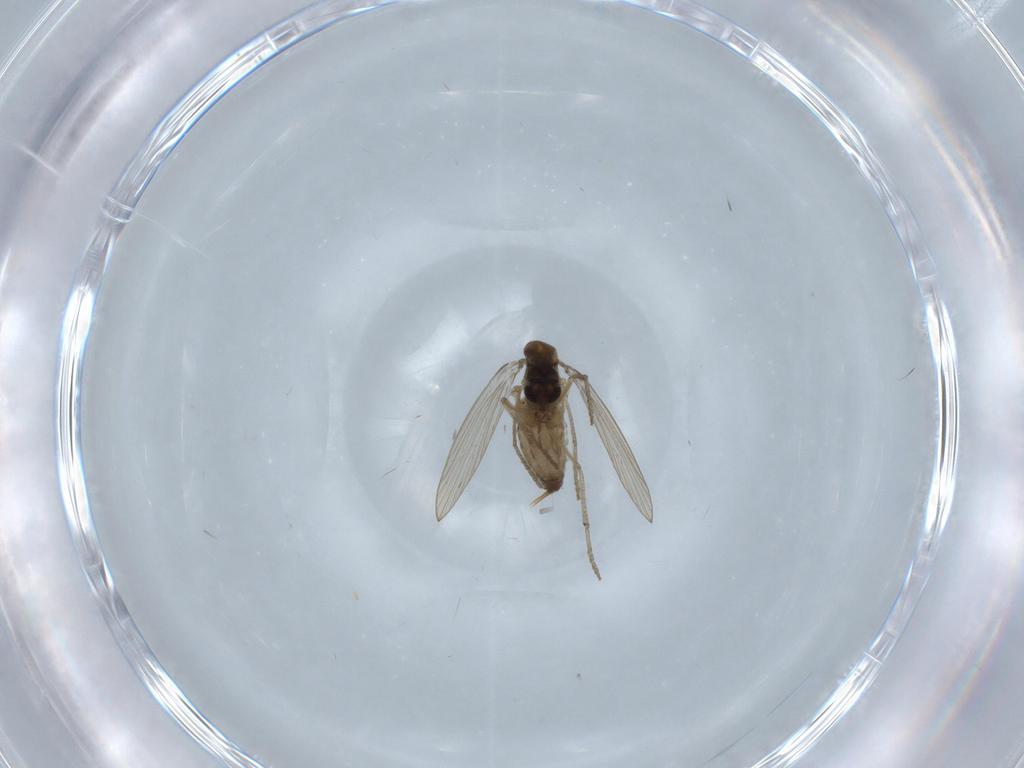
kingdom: Animalia
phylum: Arthropoda
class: Insecta
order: Diptera
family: Psychodidae
